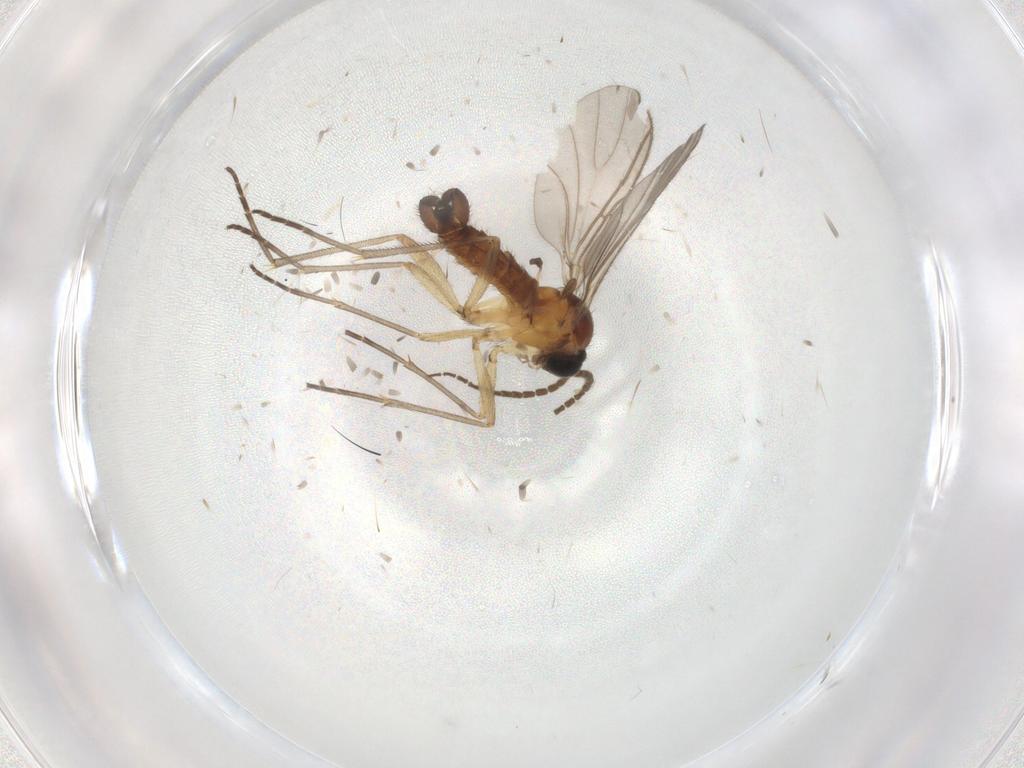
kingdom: Animalia
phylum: Arthropoda
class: Insecta
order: Diptera
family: Sciaridae
